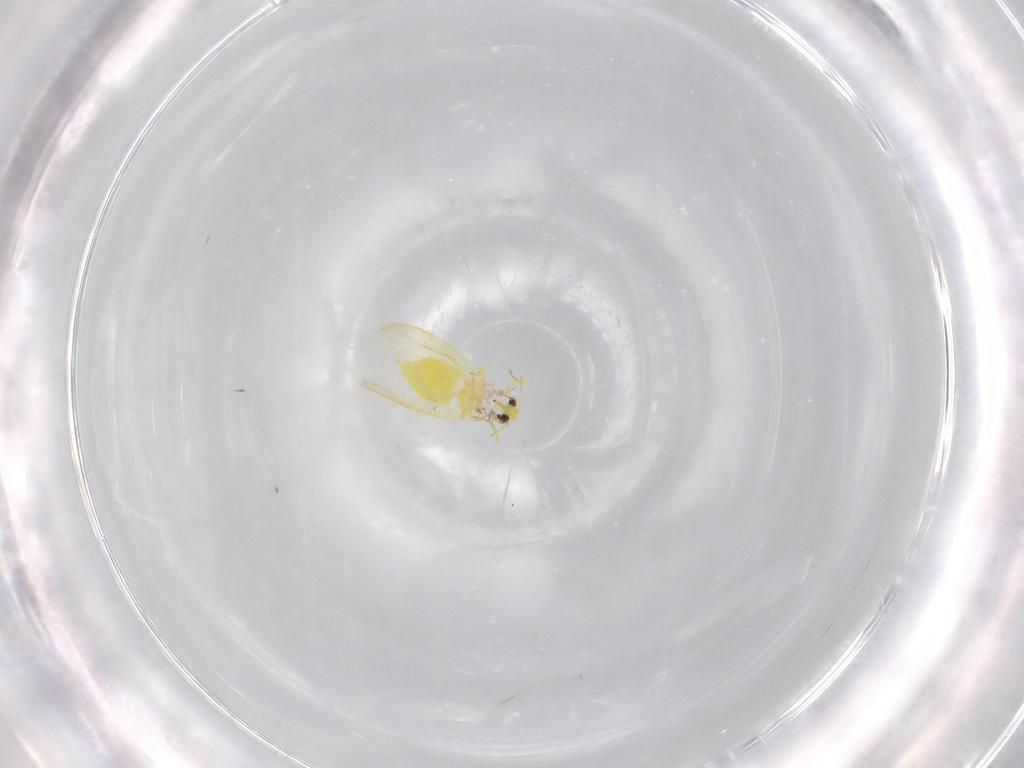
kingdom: Animalia
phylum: Arthropoda
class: Insecta
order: Hemiptera
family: Aleyrodidae
